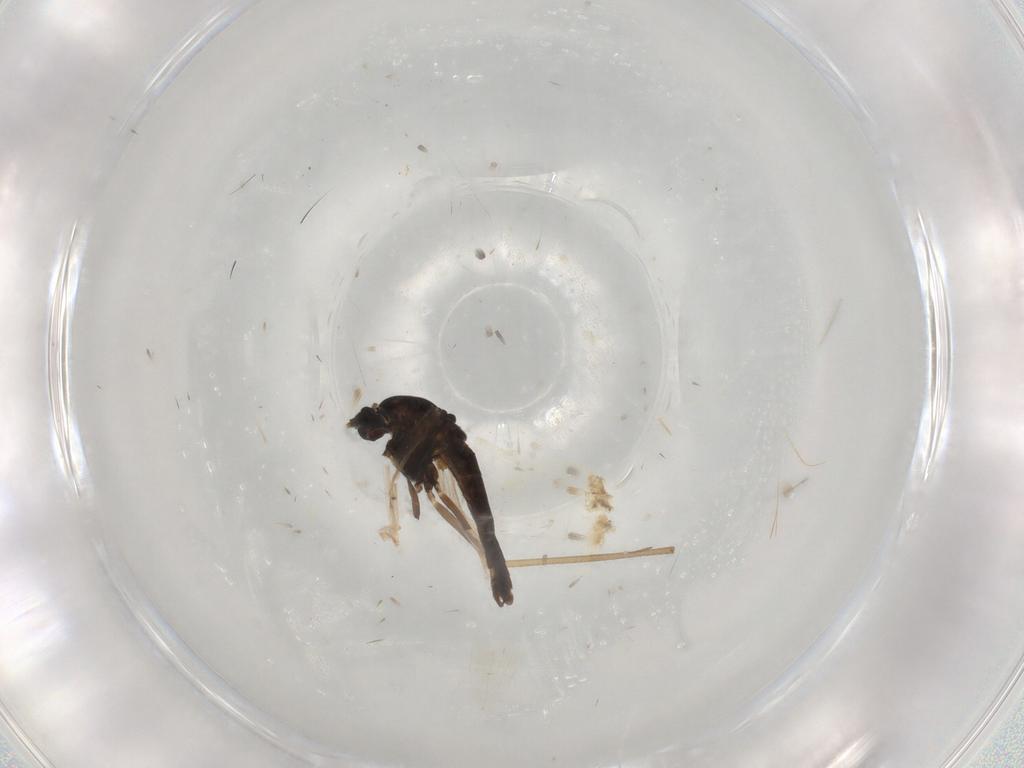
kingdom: Animalia
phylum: Arthropoda
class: Insecta
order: Diptera
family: Chironomidae
